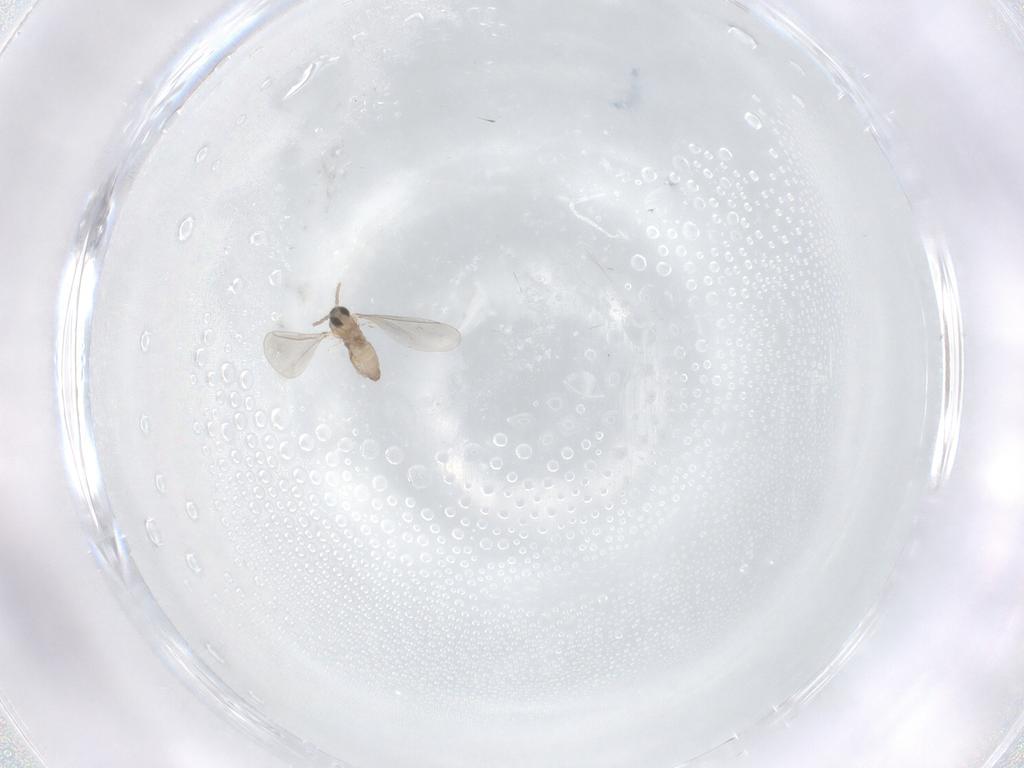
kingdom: Animalia
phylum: Arthropoda
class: Insecta
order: Diptera
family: Cecidomyiidae
